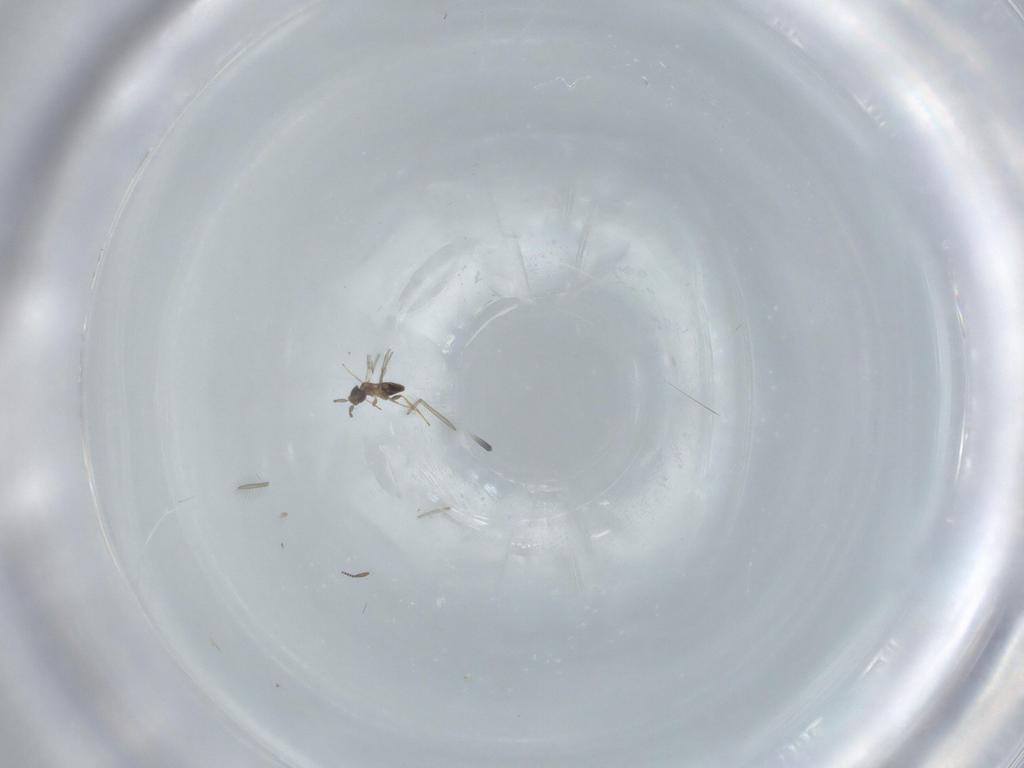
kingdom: Animalia
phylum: Arthropoda
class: Insecta
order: Hymenoptera
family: Mymaridae
